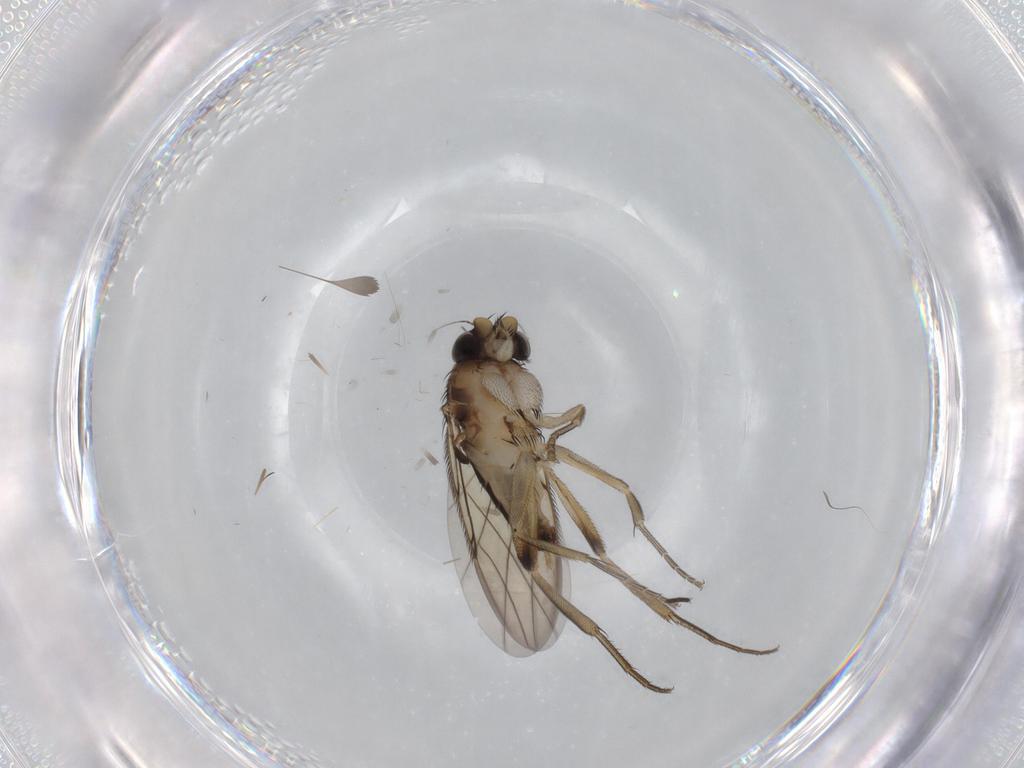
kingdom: Animalia
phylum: Arthropoda
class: Insecta
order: Diptera
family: Phoridae
